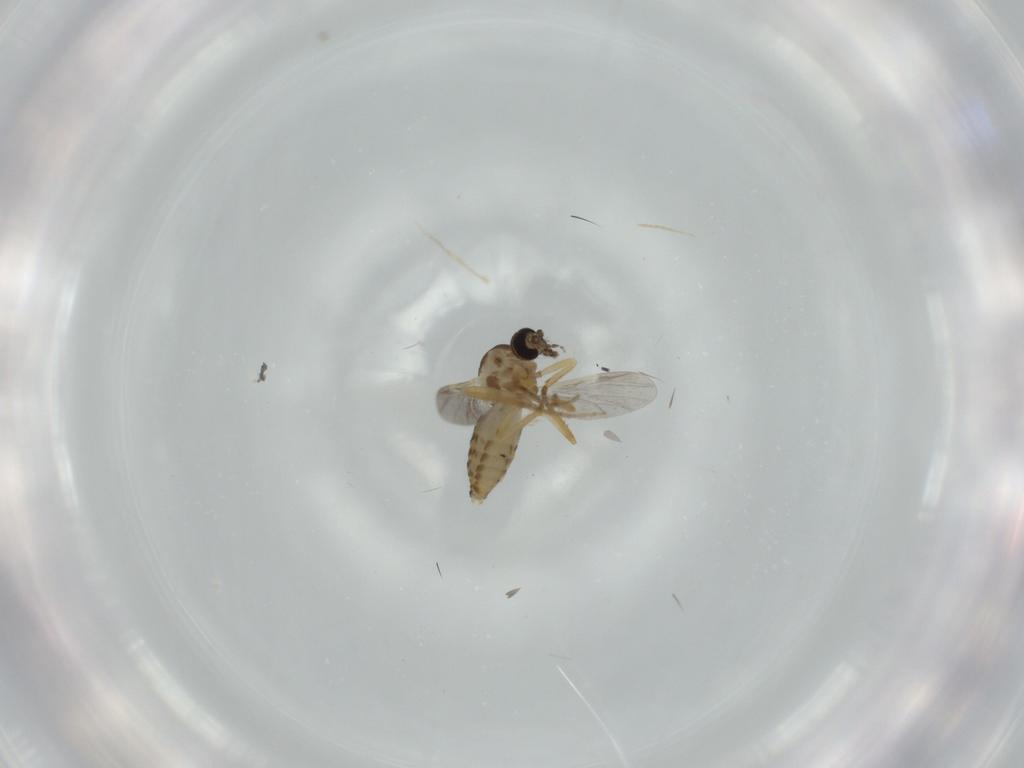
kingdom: Animalia
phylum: Arthropoda
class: Insecta
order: Diptera
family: Ceratopogonidae
